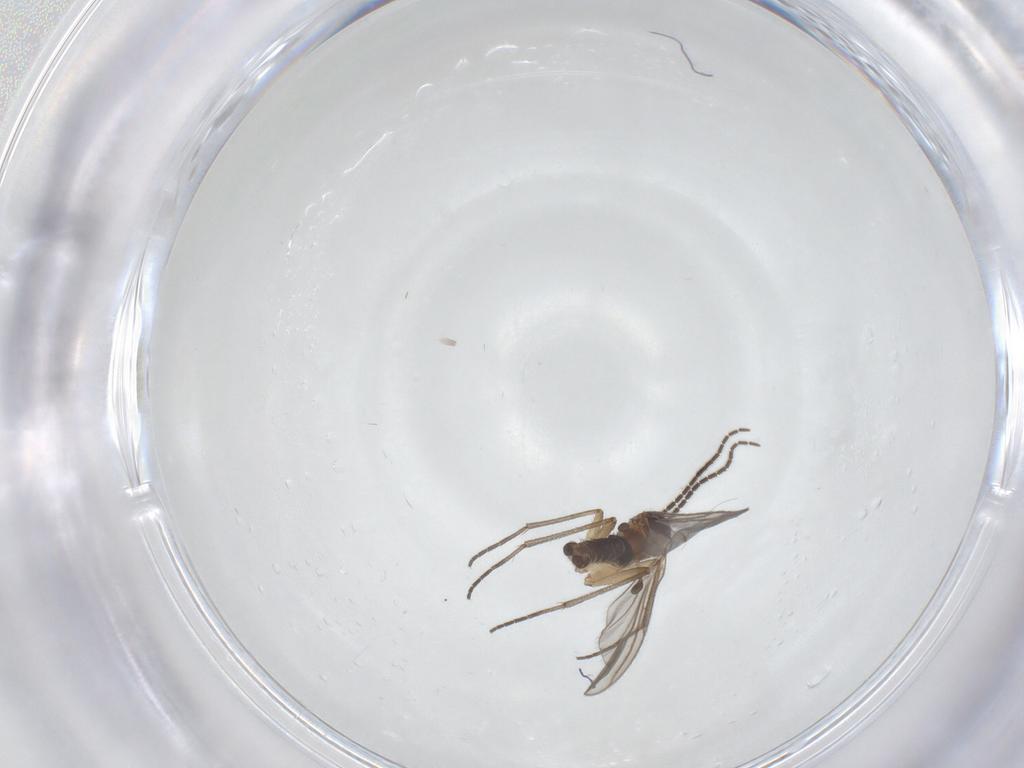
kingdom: Animalia
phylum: Arthropoda
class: Insecta
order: Diptera
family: Sciaridae
